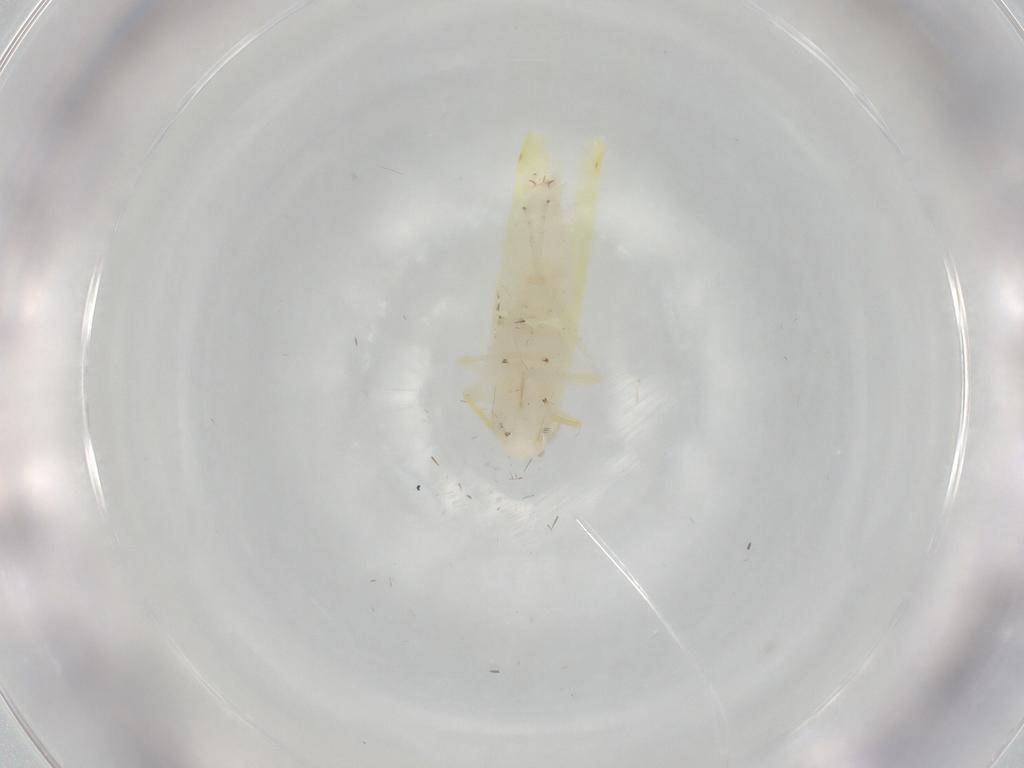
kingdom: Animalia
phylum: Arthropoda
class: Insecta
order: Hemiptera
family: Cicadellidae
